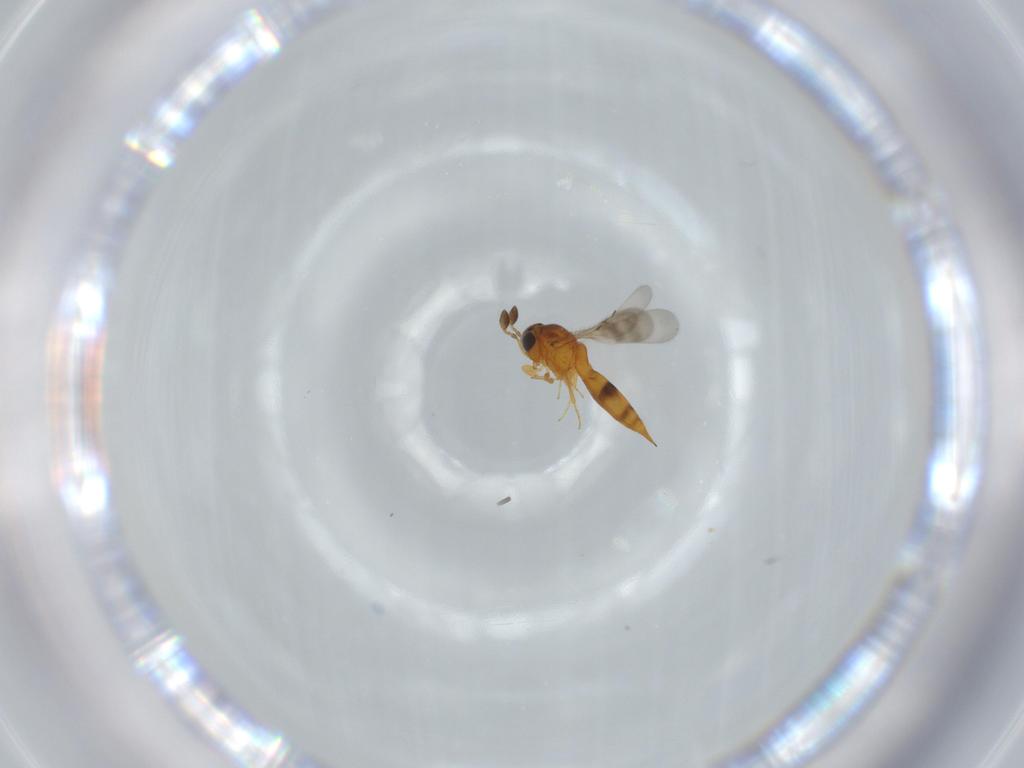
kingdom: Animalia
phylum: Arthropoda
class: Insecta
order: Hymenoptera
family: Scelionidae
